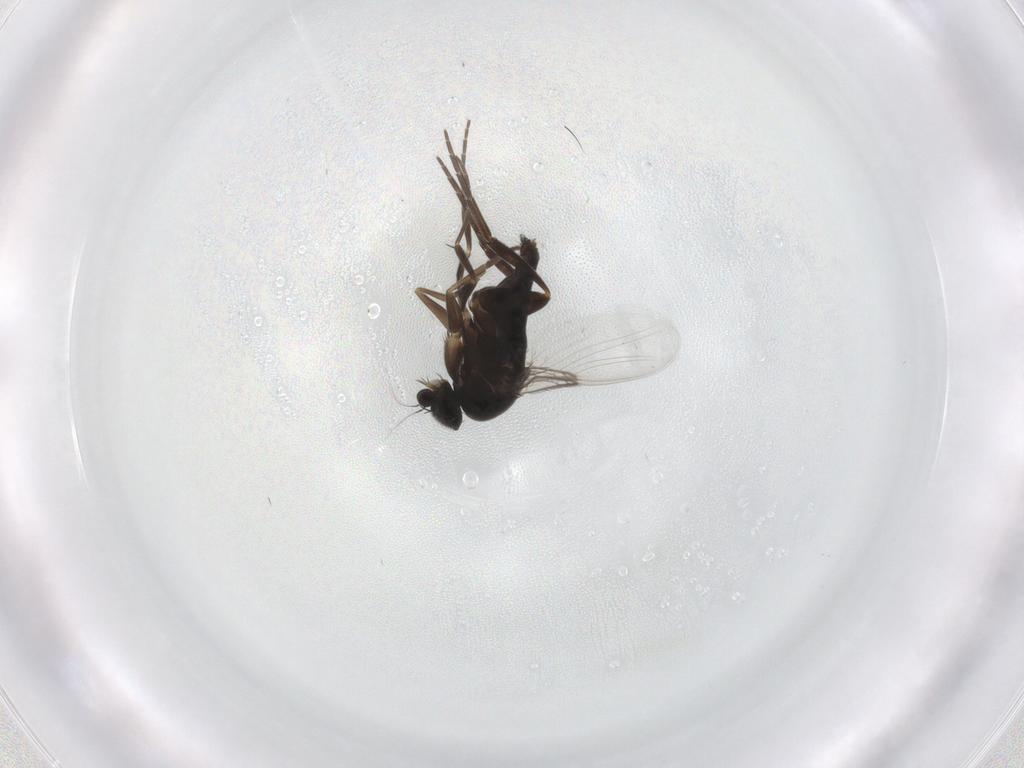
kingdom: Animalia
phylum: Arthropoda
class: Insecta
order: Diptera
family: Phoridae
